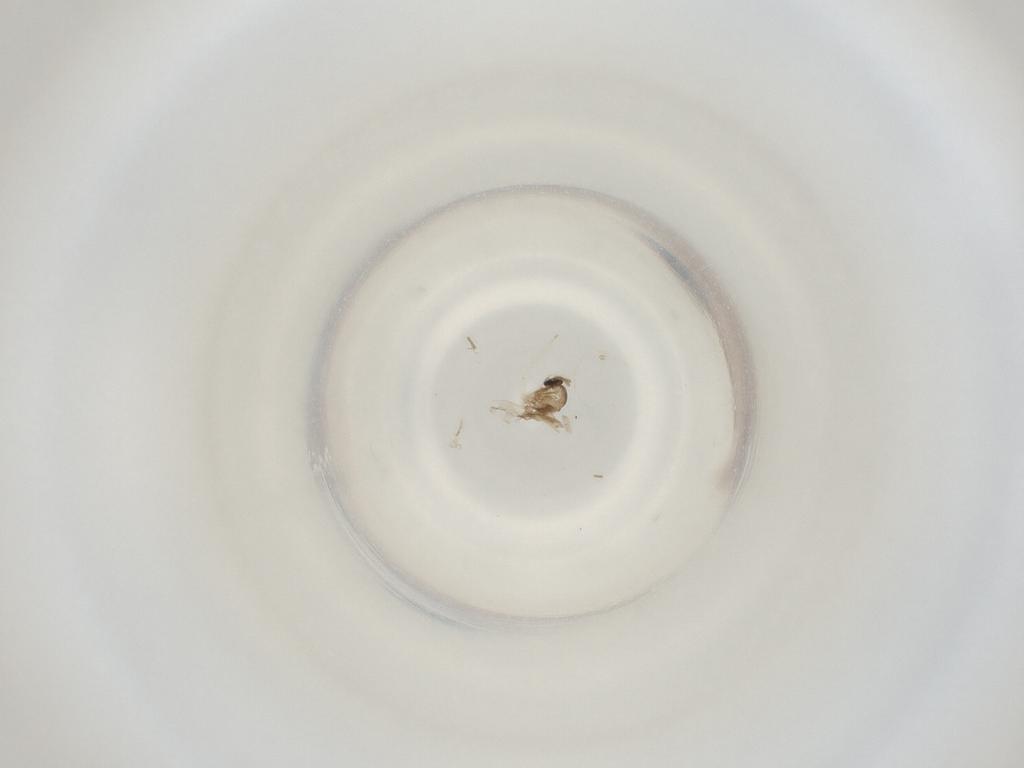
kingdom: Animalia
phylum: Arthropoda
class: Insecta
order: Diptera
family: Cecidomyiidae
